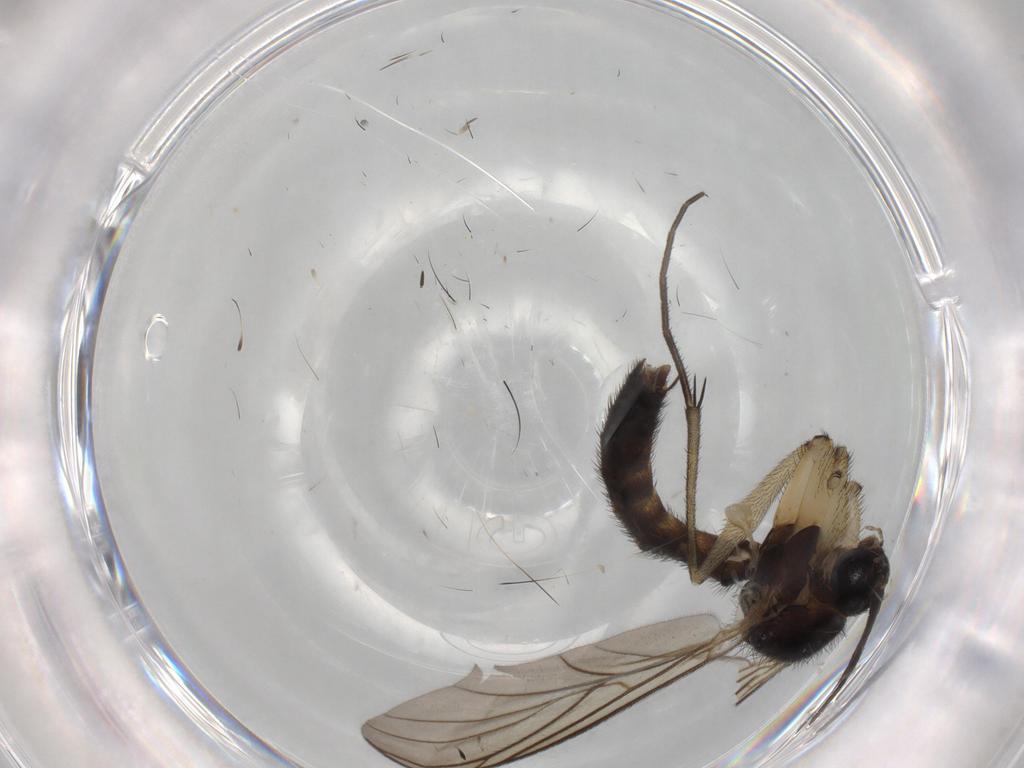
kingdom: Animalia
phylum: Arthropoda
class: Insecta
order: Diptera
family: Keroplatidae
